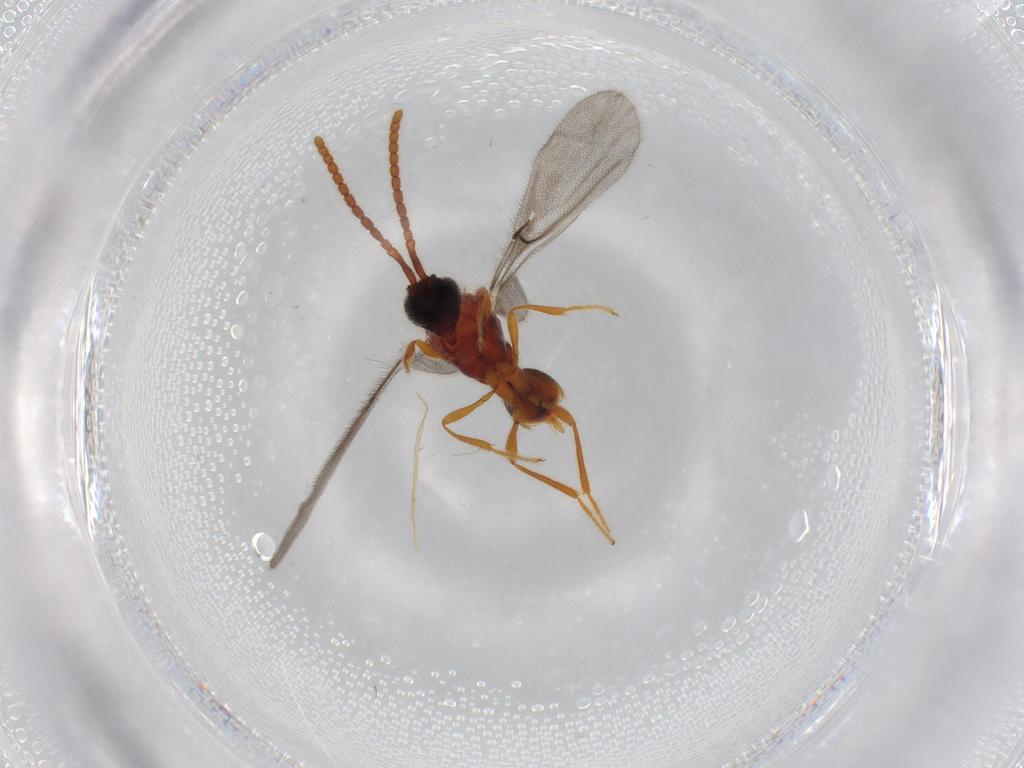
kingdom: Animalia
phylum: Arthropoda
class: Insecta
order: Hymenoptera
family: Diapriidae
